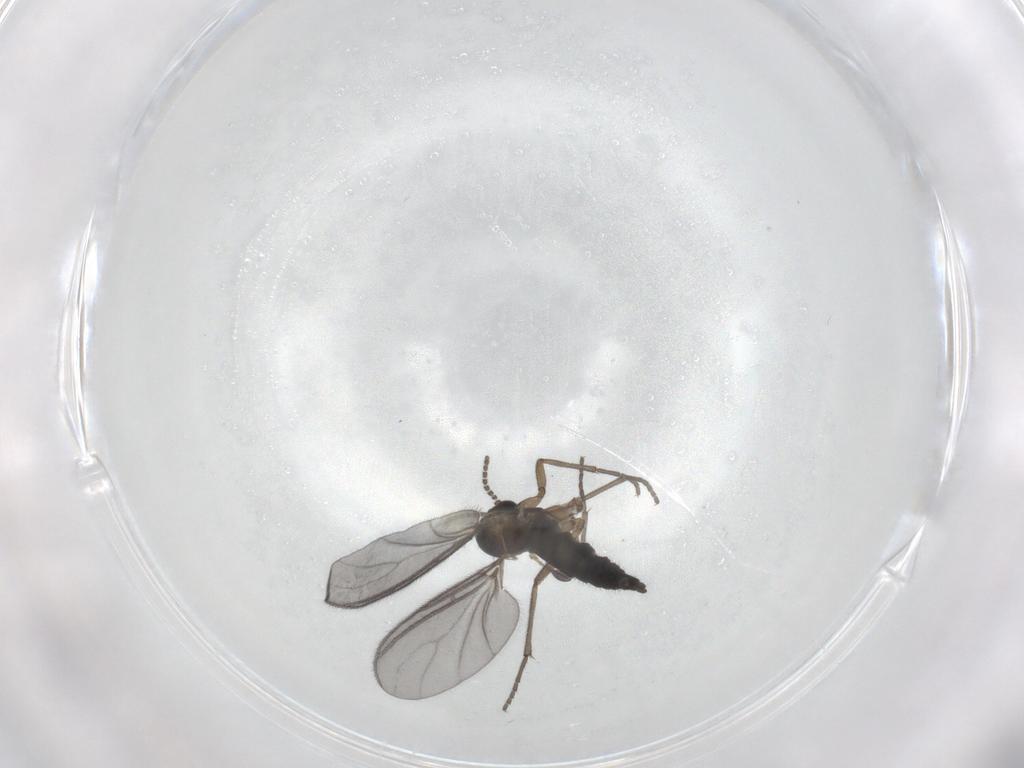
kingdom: Animalia
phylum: Arthropoda
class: Insecta
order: Diptera
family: Sciaridae
